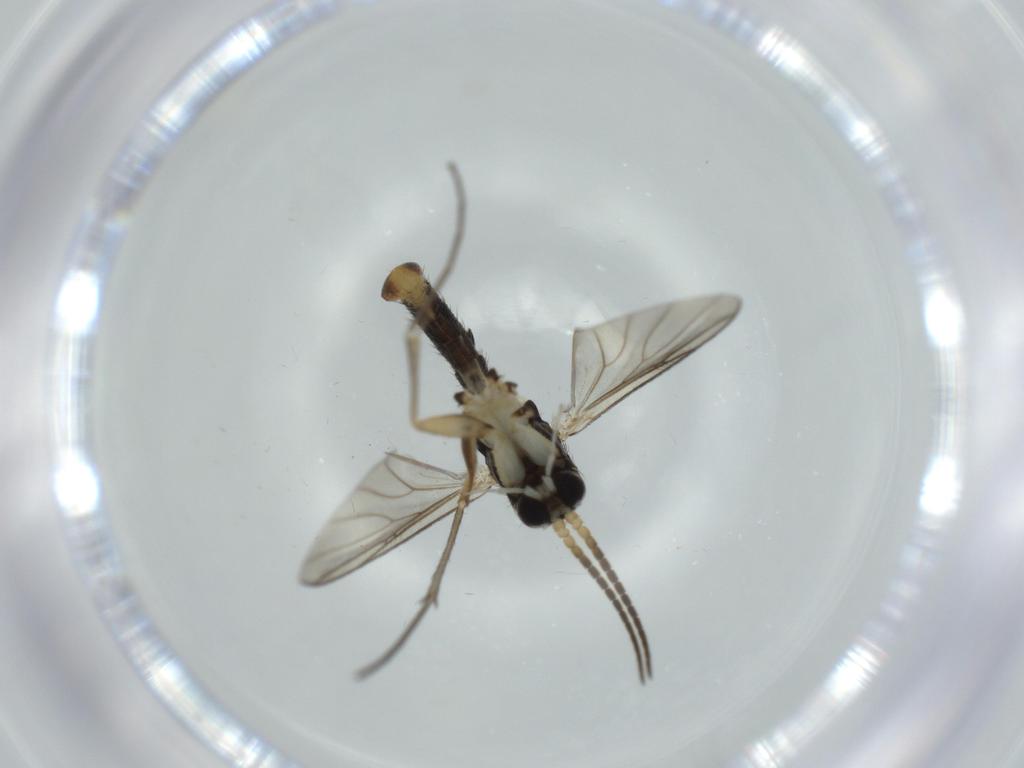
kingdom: Animalia
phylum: Arthropoda
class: Insecta
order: Diptera
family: Cecidomyiidae
